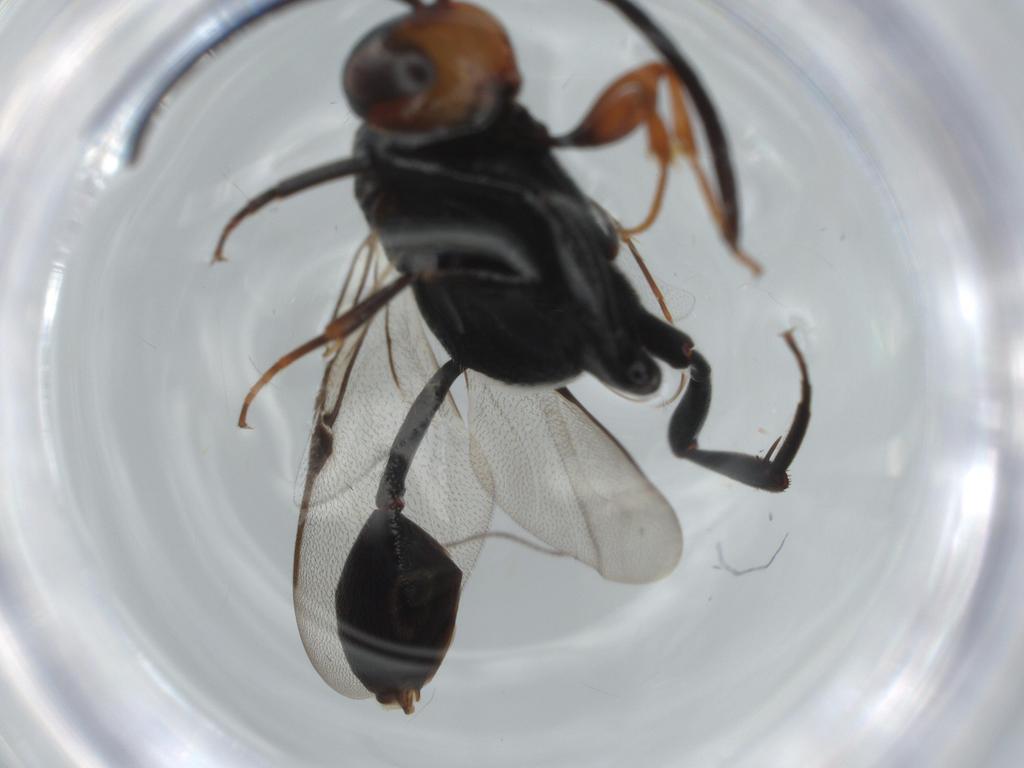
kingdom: Animalia
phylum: Arthropoda
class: Insecta
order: Hymenoptera
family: Evaniidae
